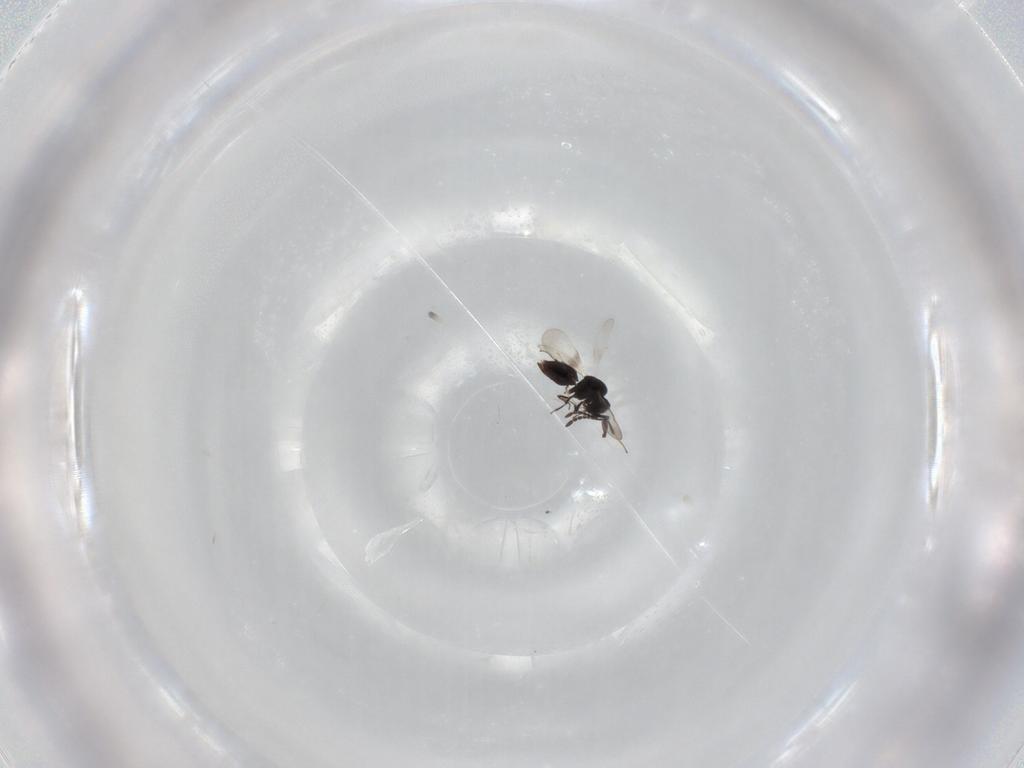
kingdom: Animalia
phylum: Arthropoda
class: Insecta
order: Hymenoptera
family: Ceraphronidae
